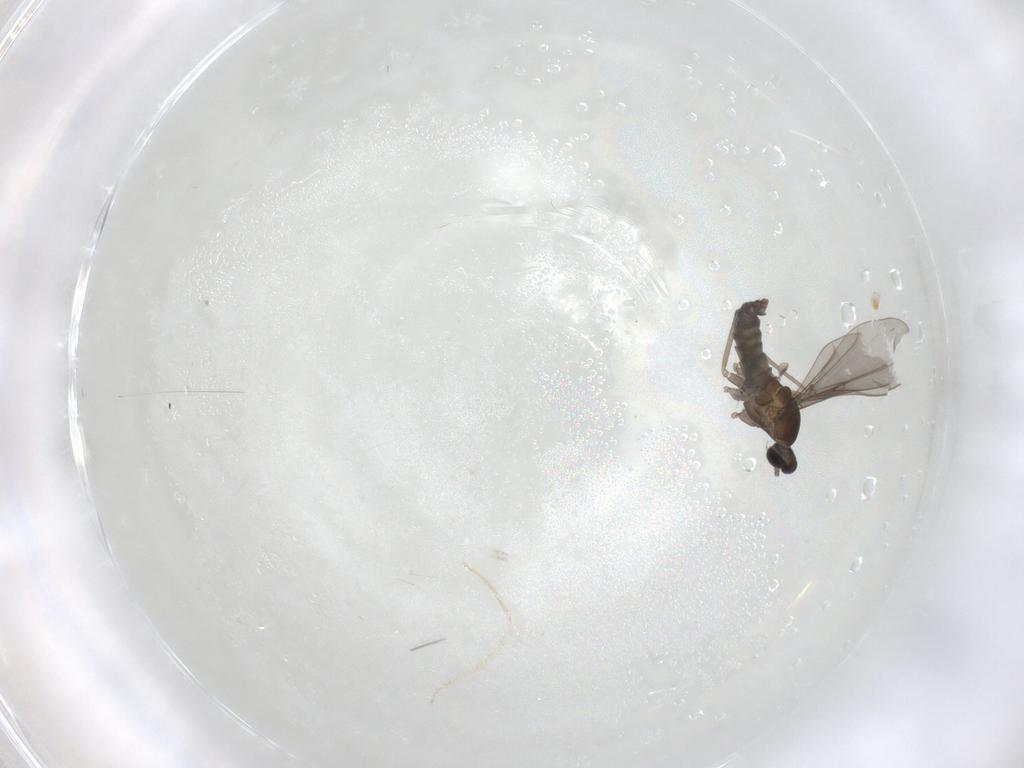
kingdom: Animalia
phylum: Arthropoda
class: Insecta
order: Diptera
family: Cecidomyiidae
